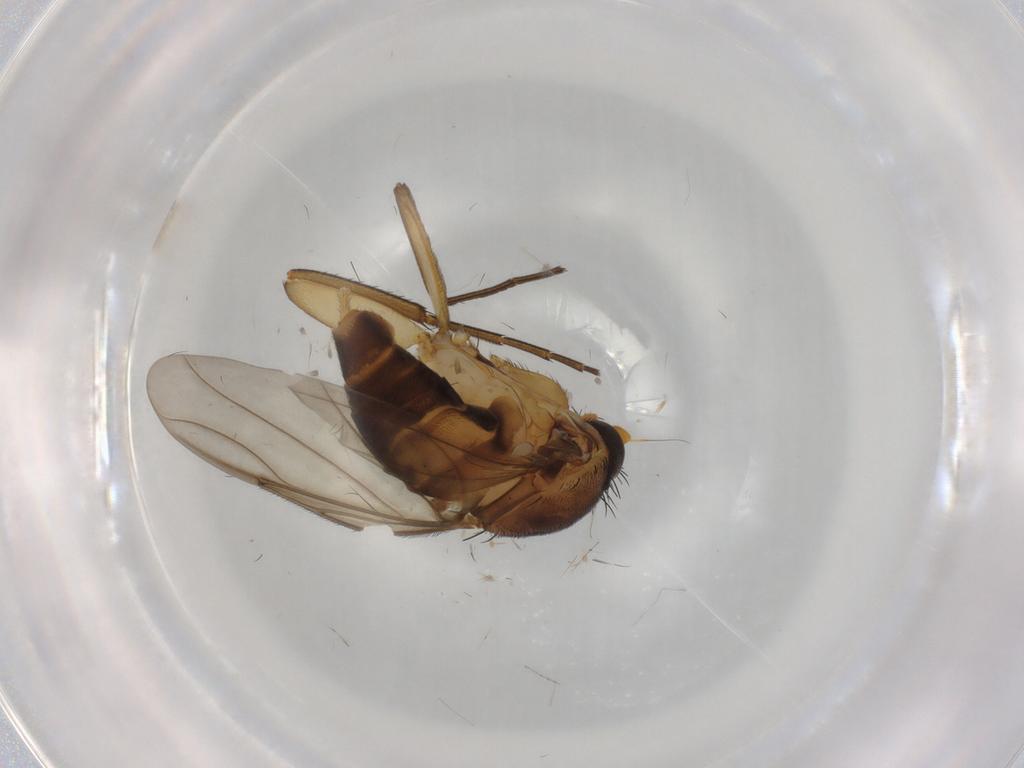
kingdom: Animalia
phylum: Arthropoda
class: Insecta
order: Diptera
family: Phoridae
